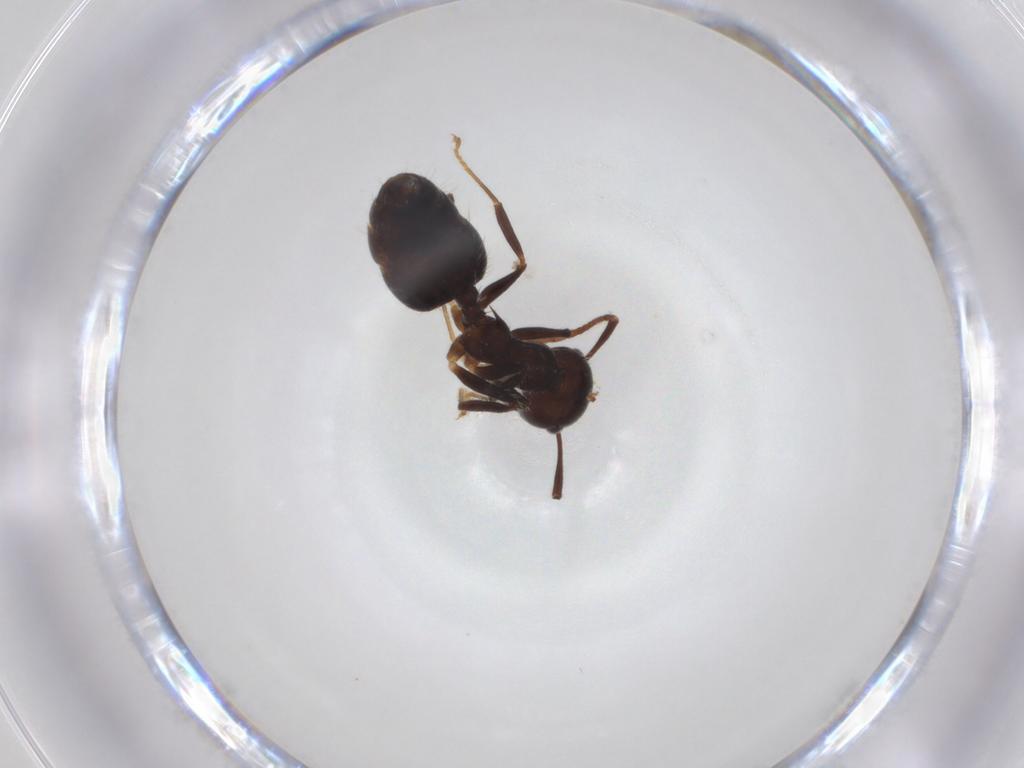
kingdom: Animalia
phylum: Arthropoda
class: Insecta
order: Hymenoptera
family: Formicidae
